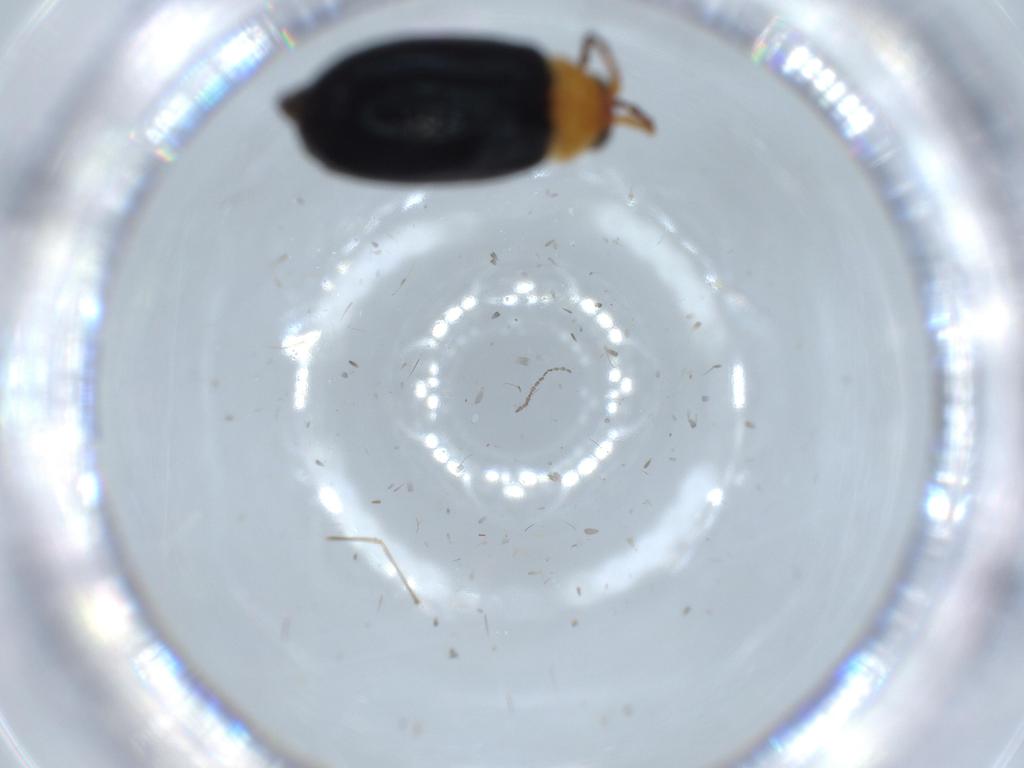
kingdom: Animalia
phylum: Arthropoda
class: Insecta
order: Coleoptera
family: Chrysomelidae
